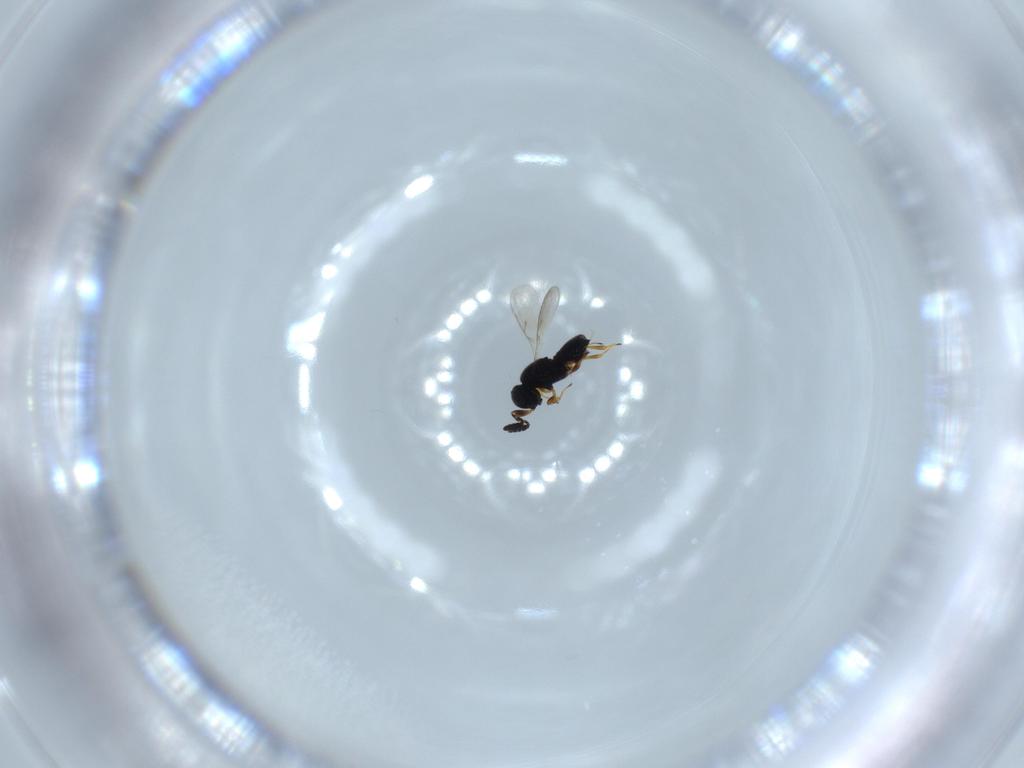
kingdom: Animalia
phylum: Arthropoda
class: Insecta
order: Hymenoptera
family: Scelionidae
